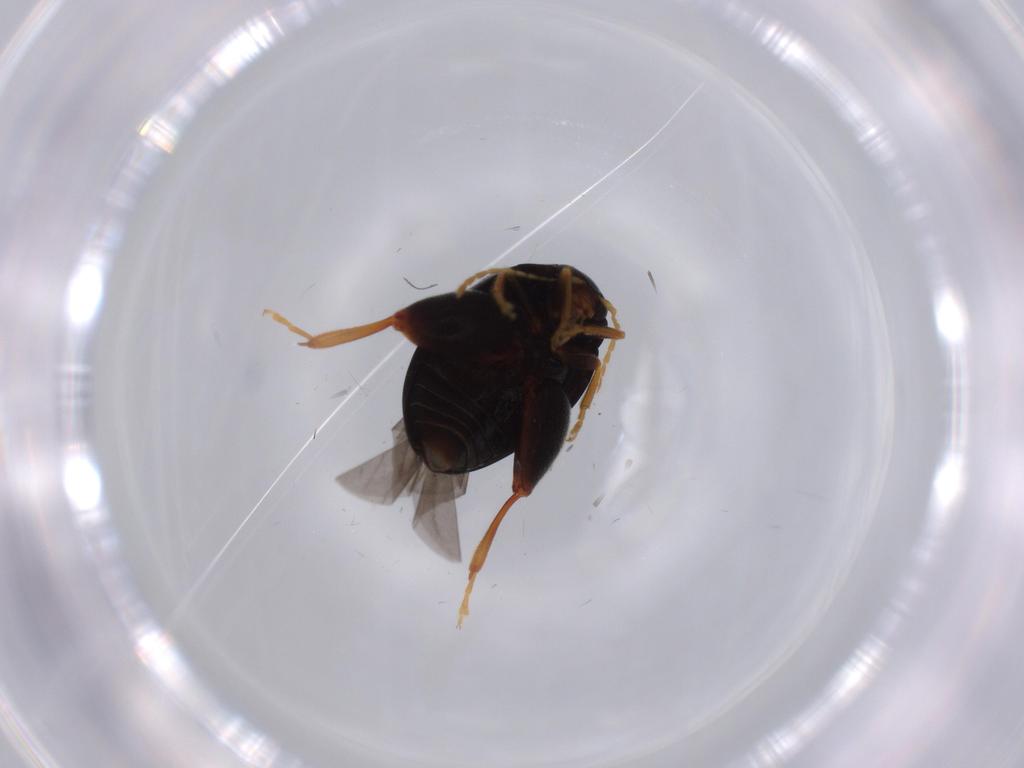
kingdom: Animalia
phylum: Arthropoda
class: Insecta
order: Coleoptera
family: Chrysomelidae
